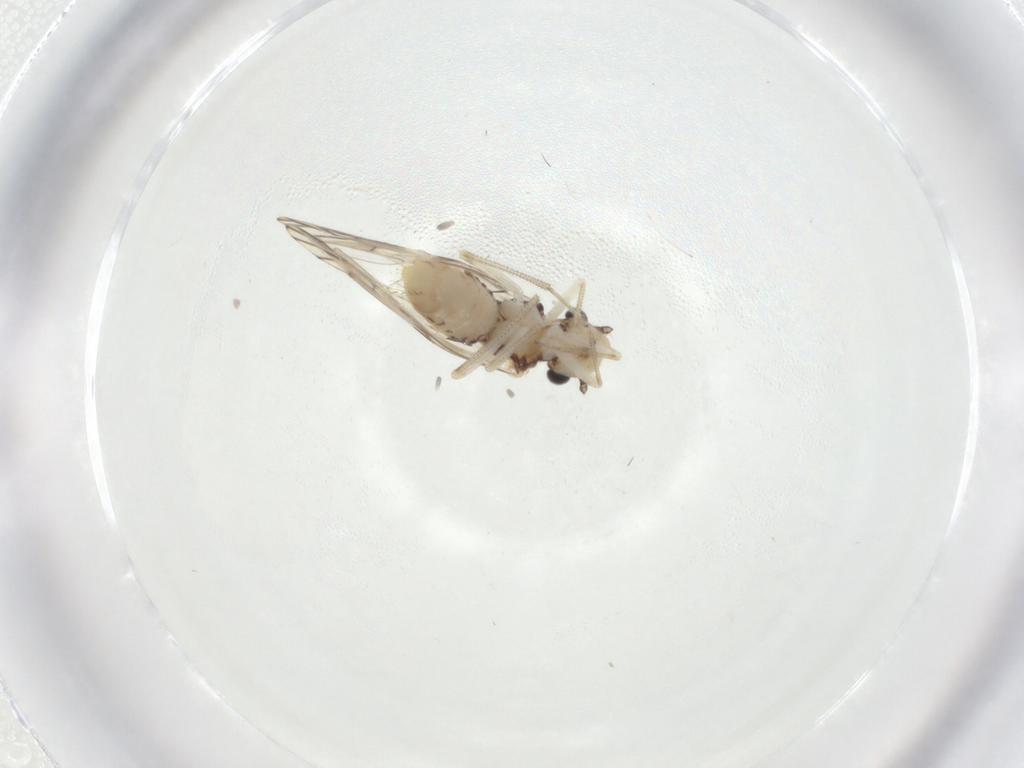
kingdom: Animalia
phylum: Arthropoda
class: Insecta
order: Psocodea
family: Caeciliusidae
